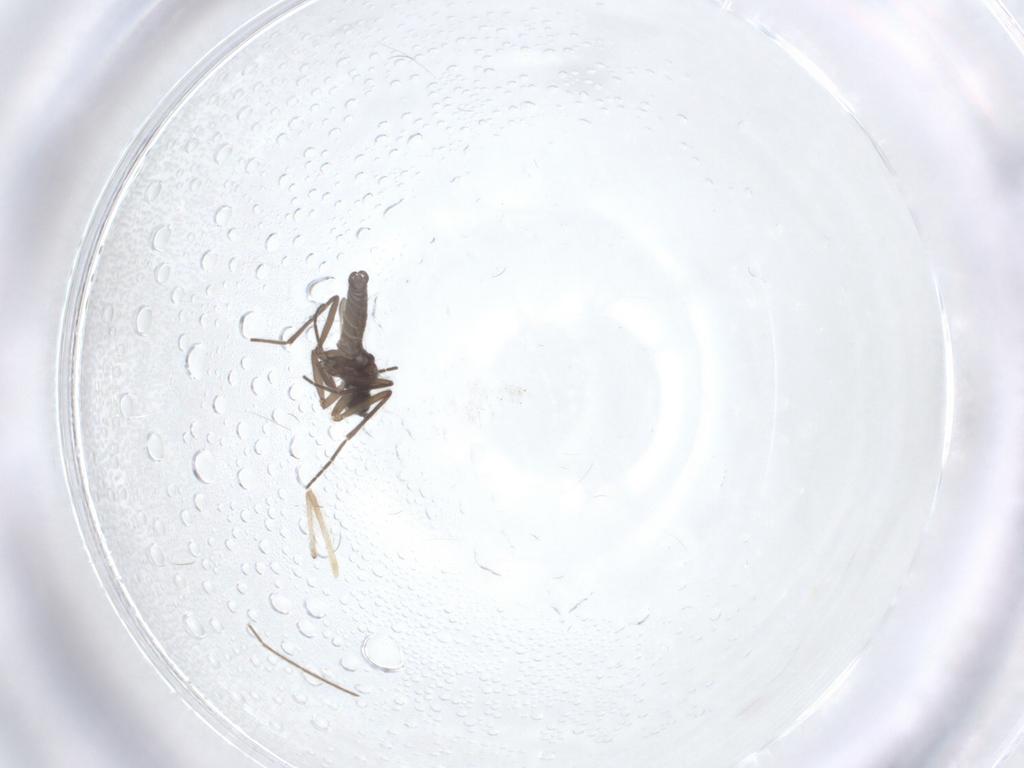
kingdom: Animalia
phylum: Arthropoda
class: Insecta
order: Diptera
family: Sciaridae
